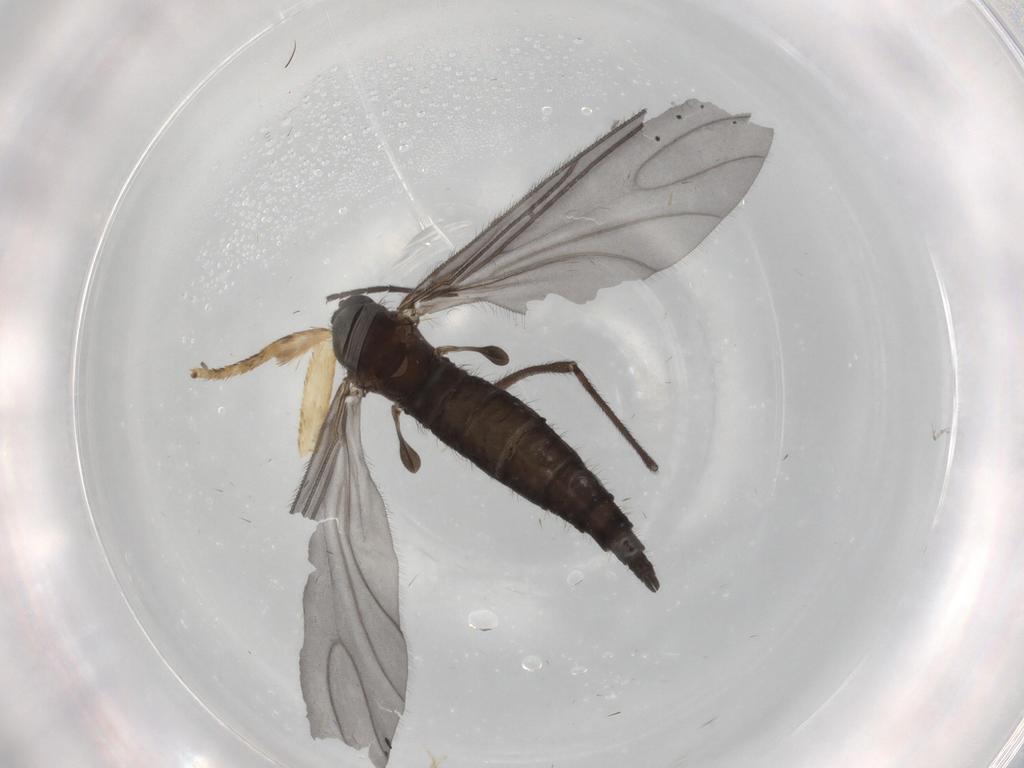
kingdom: Animalia
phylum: Arthropoda
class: Insecta
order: Diptera
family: Sciaridae
